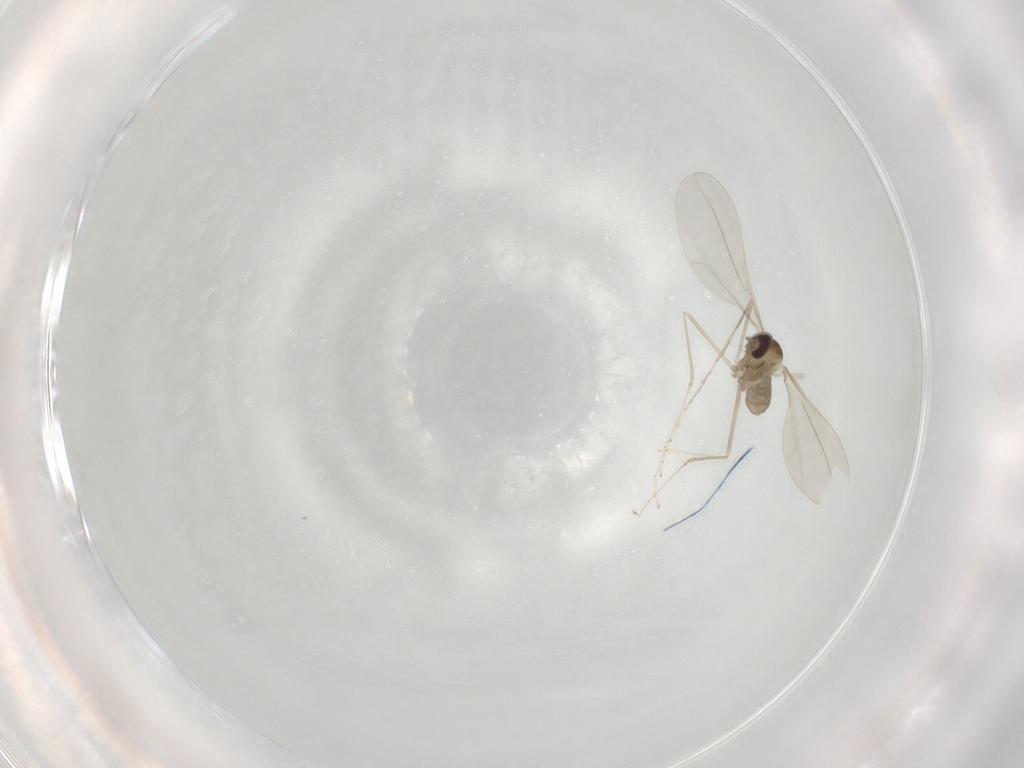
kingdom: Animalia
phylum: Arthropoda
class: Insecta
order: Diptera
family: Cecidomyiidae
